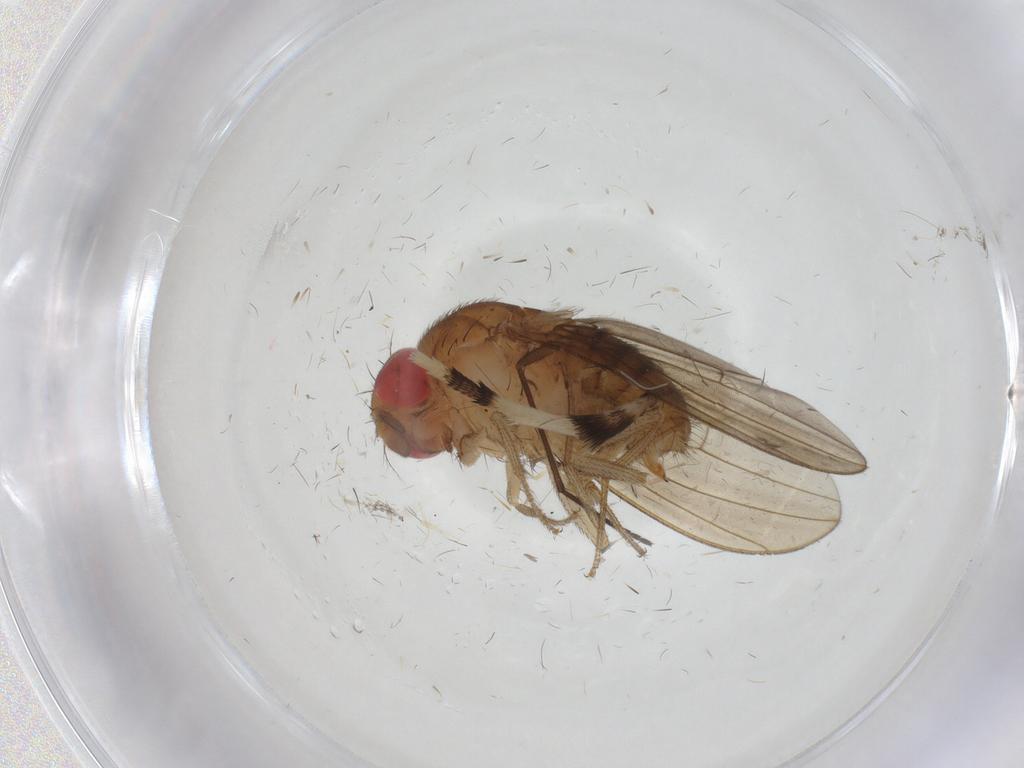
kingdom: Animalia
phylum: Arthropoda
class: Insecta
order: Diptera
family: Drosophilidae
